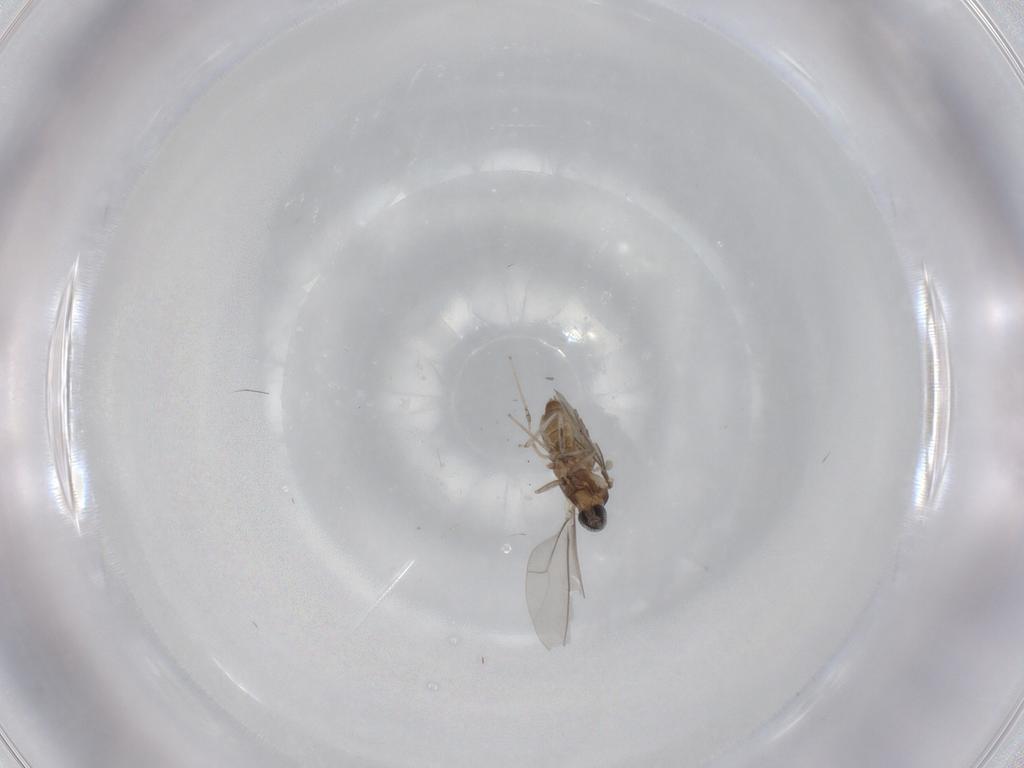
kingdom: Animalia
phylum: Arthropoda
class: Insecta
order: Diptera
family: Cecidomyiidae
